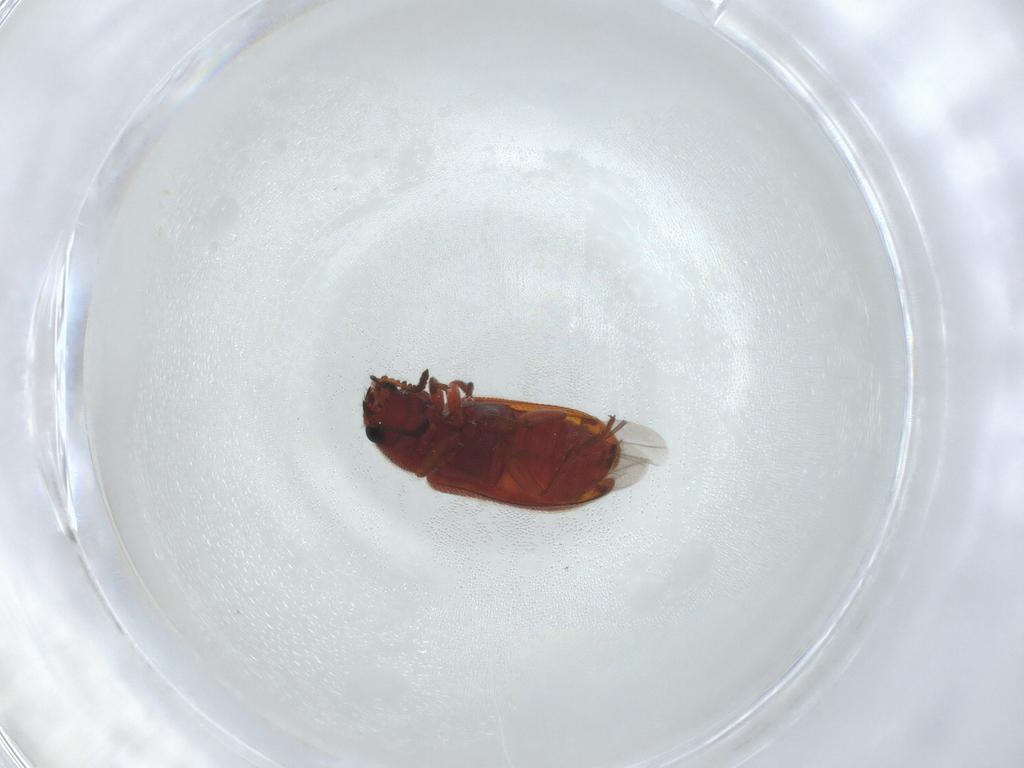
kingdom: Animalia
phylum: Arthropoda
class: Insecta
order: Coleoptera
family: Melyridae
